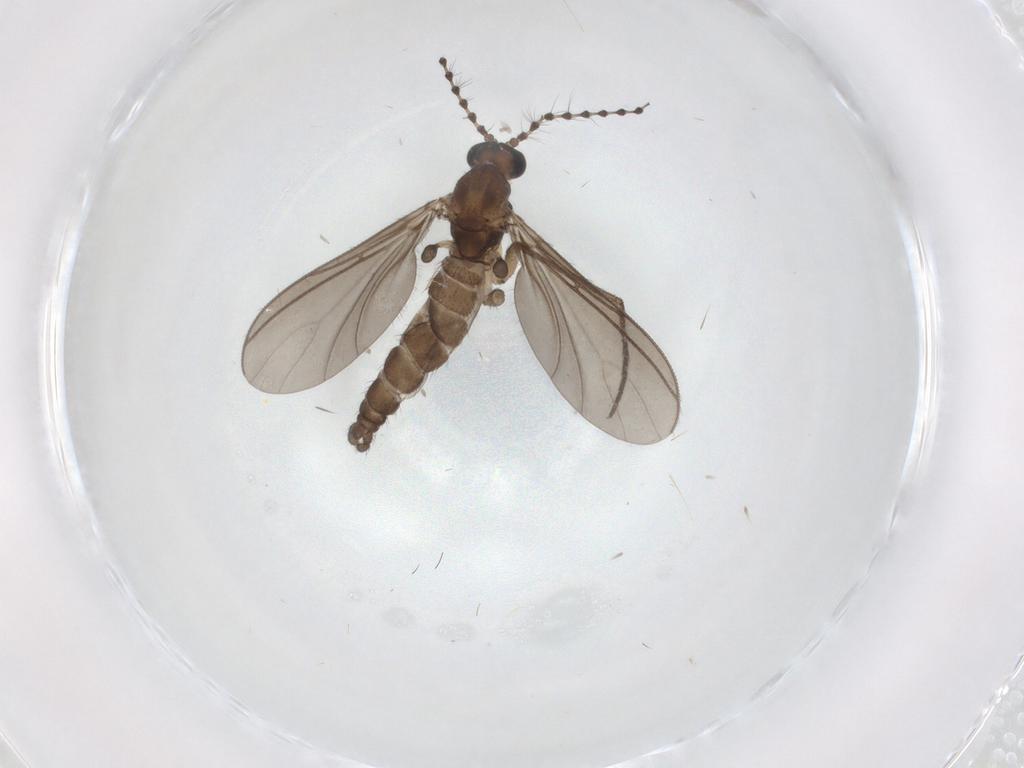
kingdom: Animalia
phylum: Arthropoda
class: Insecta
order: Diptera
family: Sciaridae
